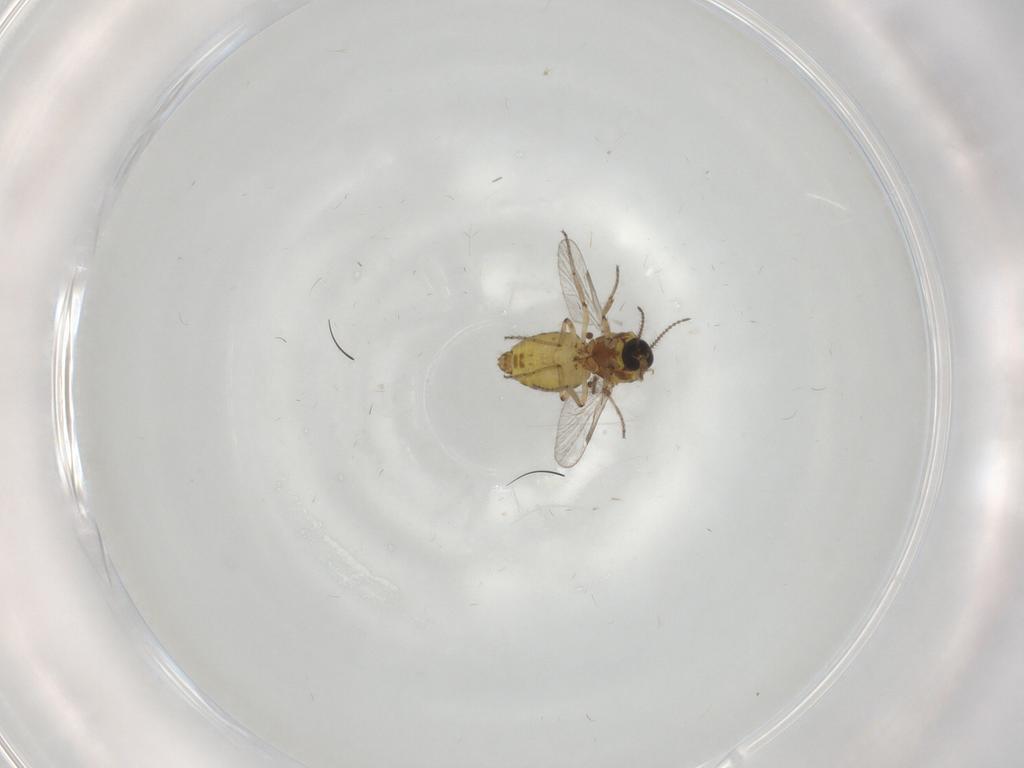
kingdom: Animalia
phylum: Arthropoda
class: Insecta
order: Diptera
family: Ceratopogonidae
